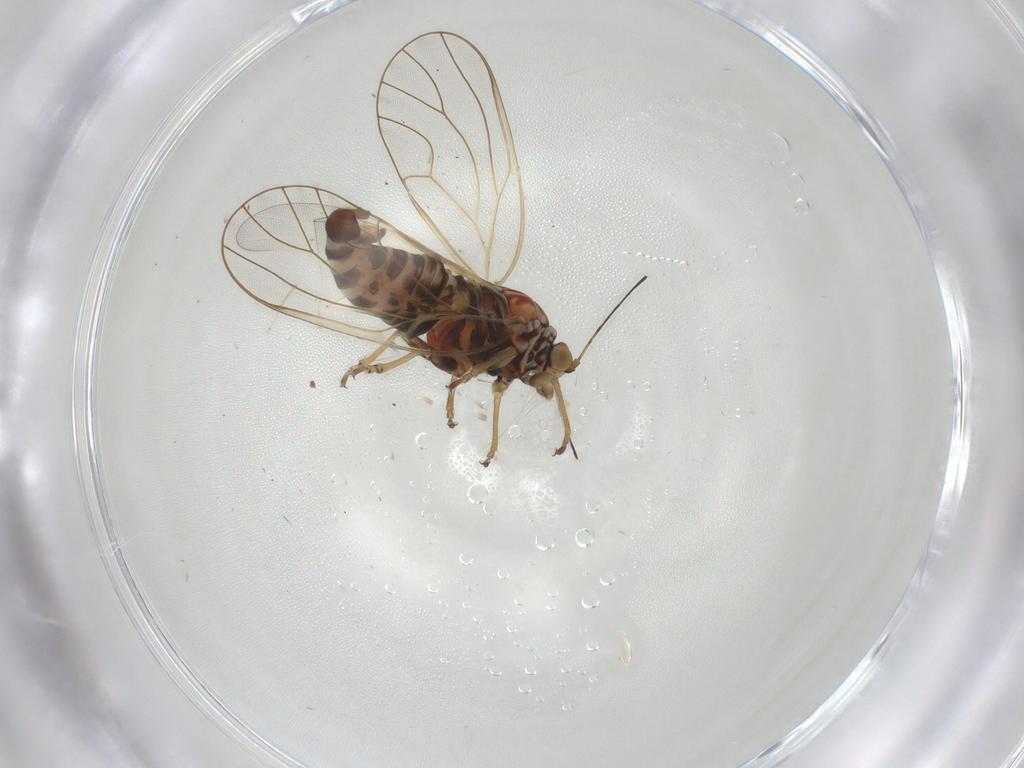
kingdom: Animalia
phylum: Arthropoda
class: Insecta
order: Hemiptera
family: Psyllidae
